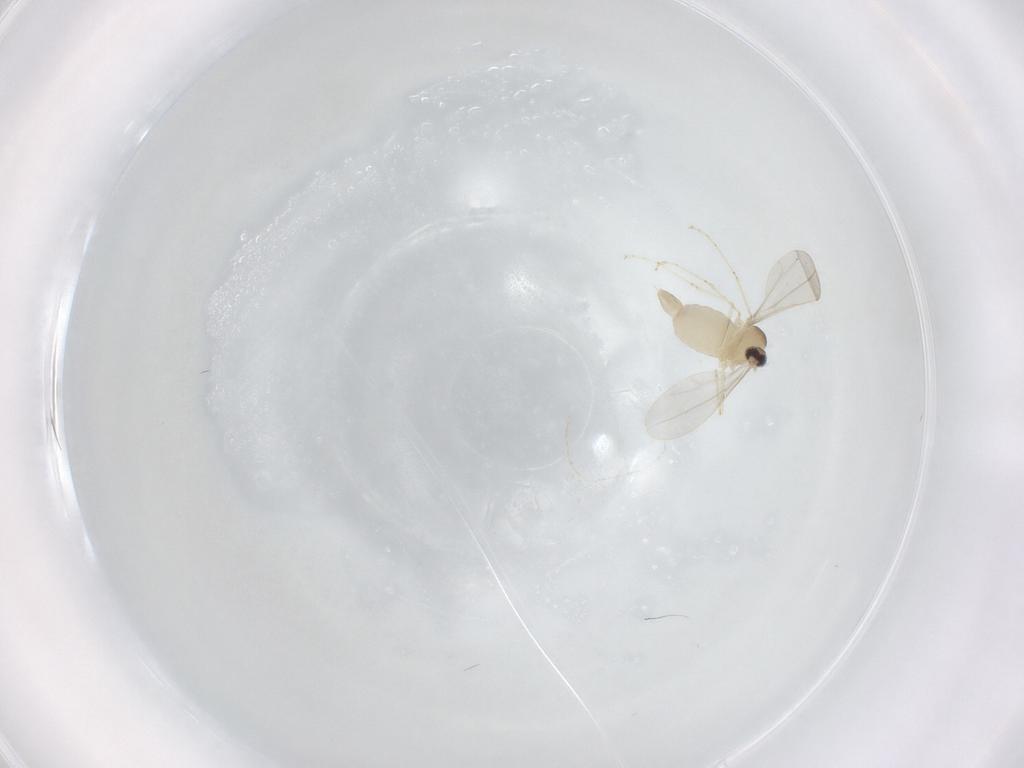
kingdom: Animalia
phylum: Arthropoda
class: Insecta
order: Diptera
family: Cecidomyiidae
